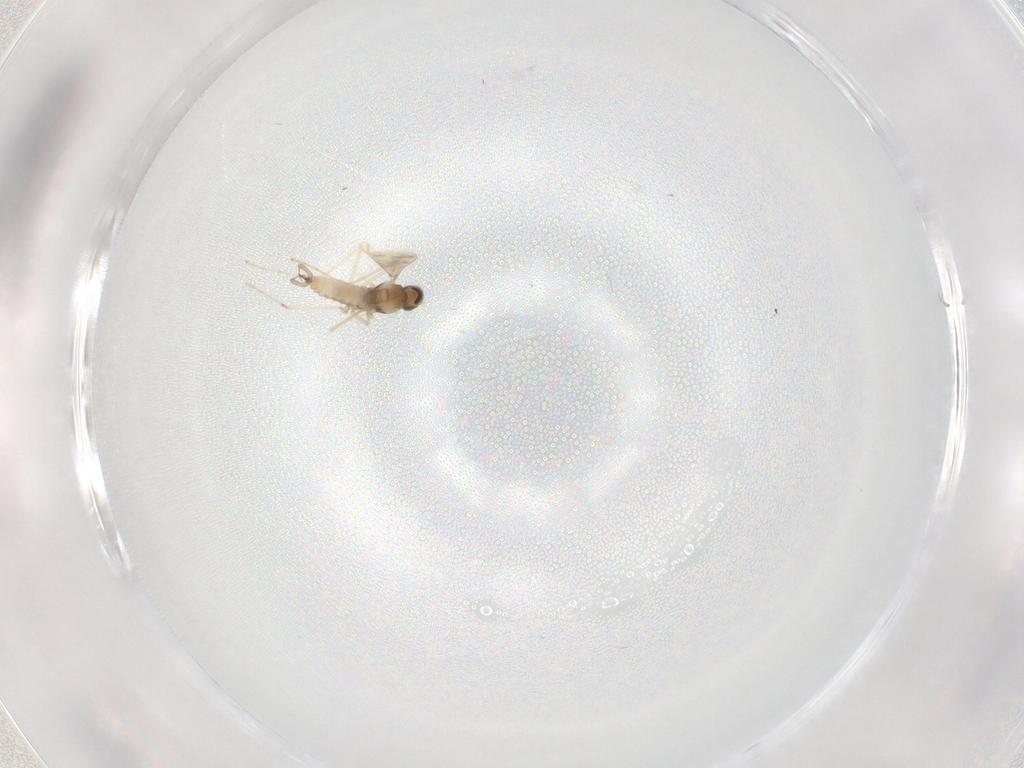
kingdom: Animalia
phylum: Arthropoda
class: Insecta
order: Diptera
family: Cecidomyiidae
